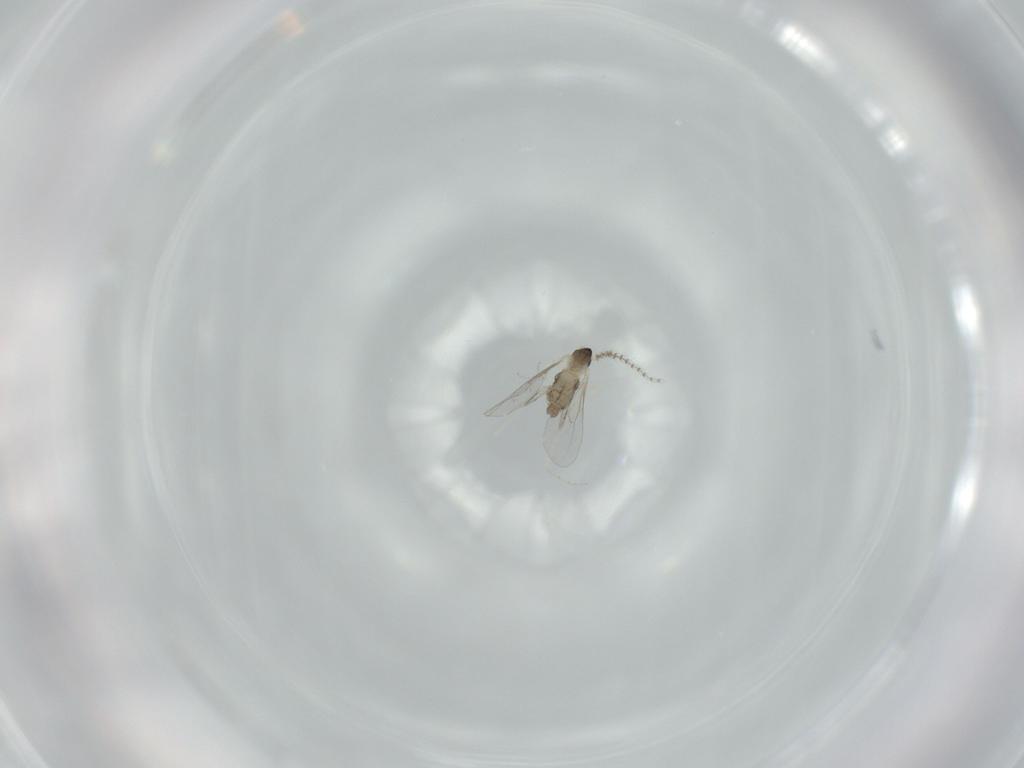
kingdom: Animalia
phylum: Arthropoda
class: Insecta
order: Diptera
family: Cecidomyiidae
